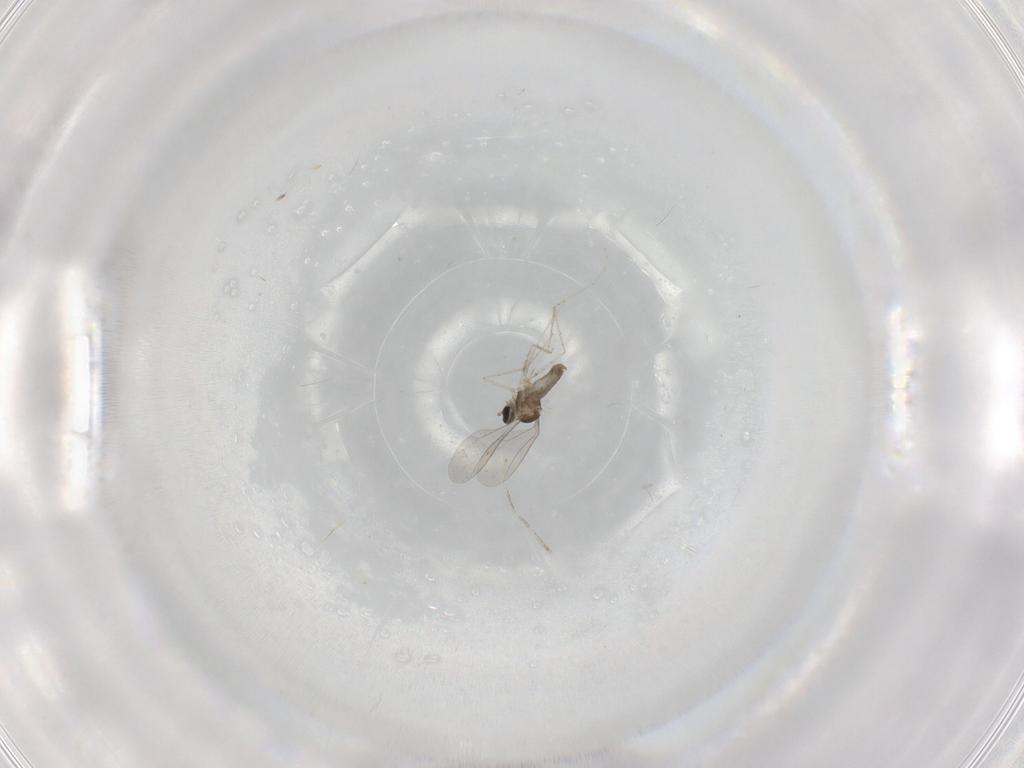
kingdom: Animalia
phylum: Arthropoda
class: Insecta
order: Diptera
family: Cecidomyiidae
